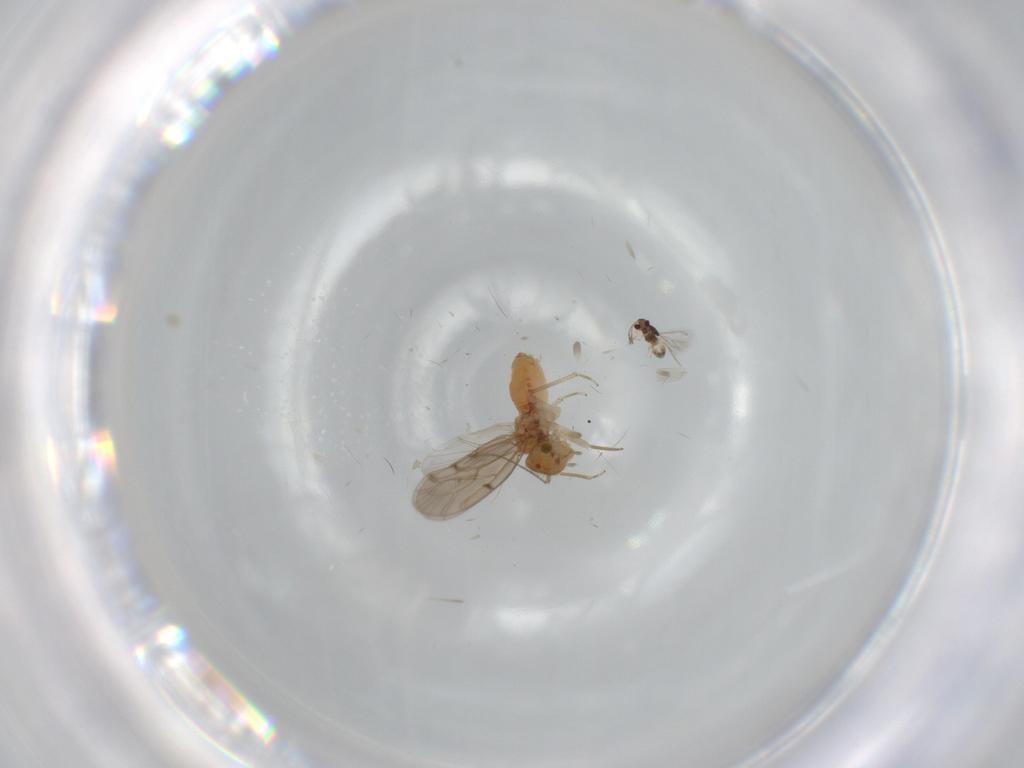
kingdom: Animalia
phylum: Arthropoda
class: Insecta
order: Psocodea
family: Ectopsocidae
